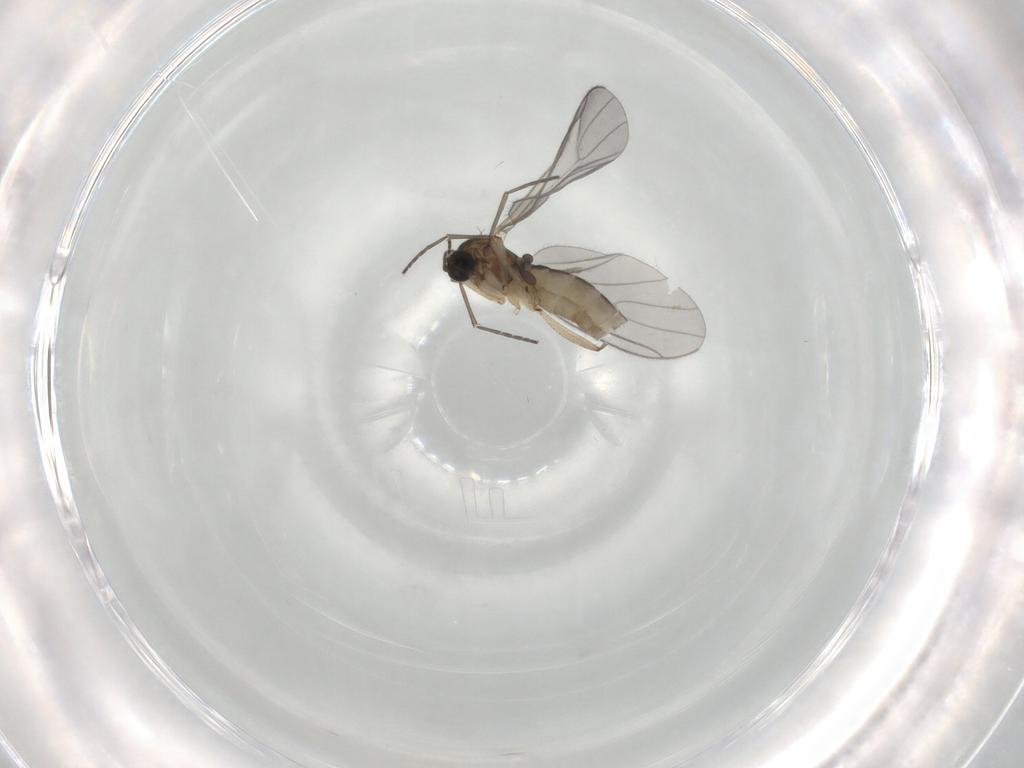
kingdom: Animalia
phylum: Arthropoda
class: Insecta
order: Diptera
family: Sciaridae
